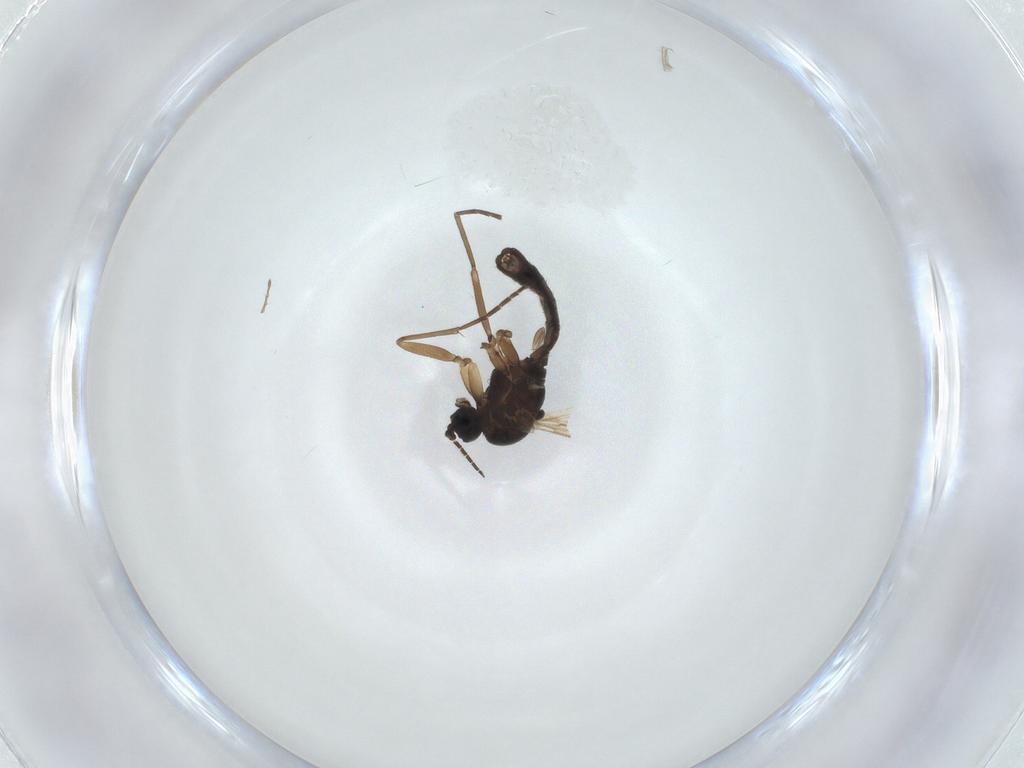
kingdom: Animalia
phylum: Arthropoda
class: Insecta
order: Diptera
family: Sciaridae
